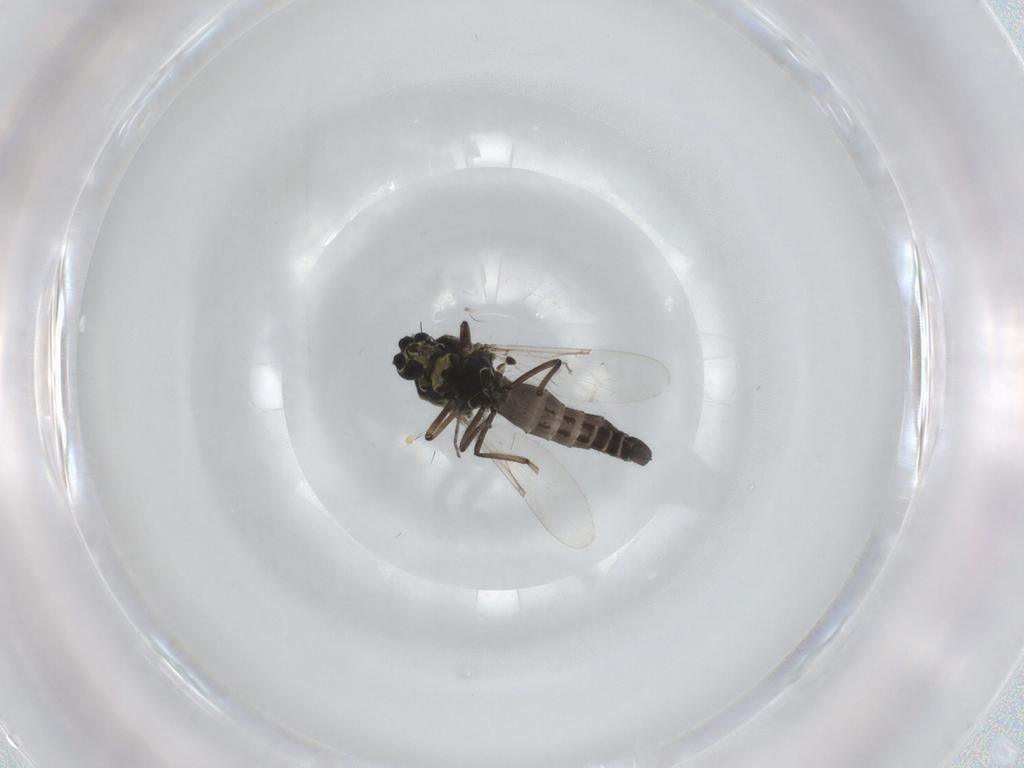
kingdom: Animalia
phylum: Arthropoda
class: Insecta
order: Diptera
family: Ceratopogonidae
